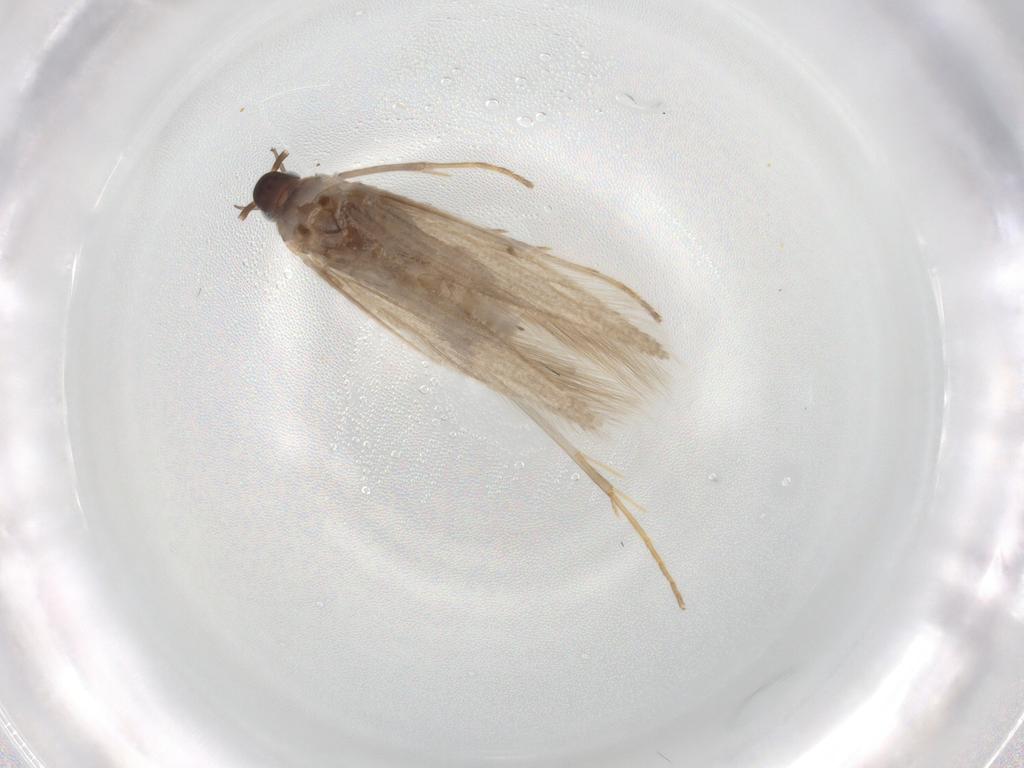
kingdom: Animalia
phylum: Arthropoda
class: Insecta
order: Lepidoptera
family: Coleophoridae
